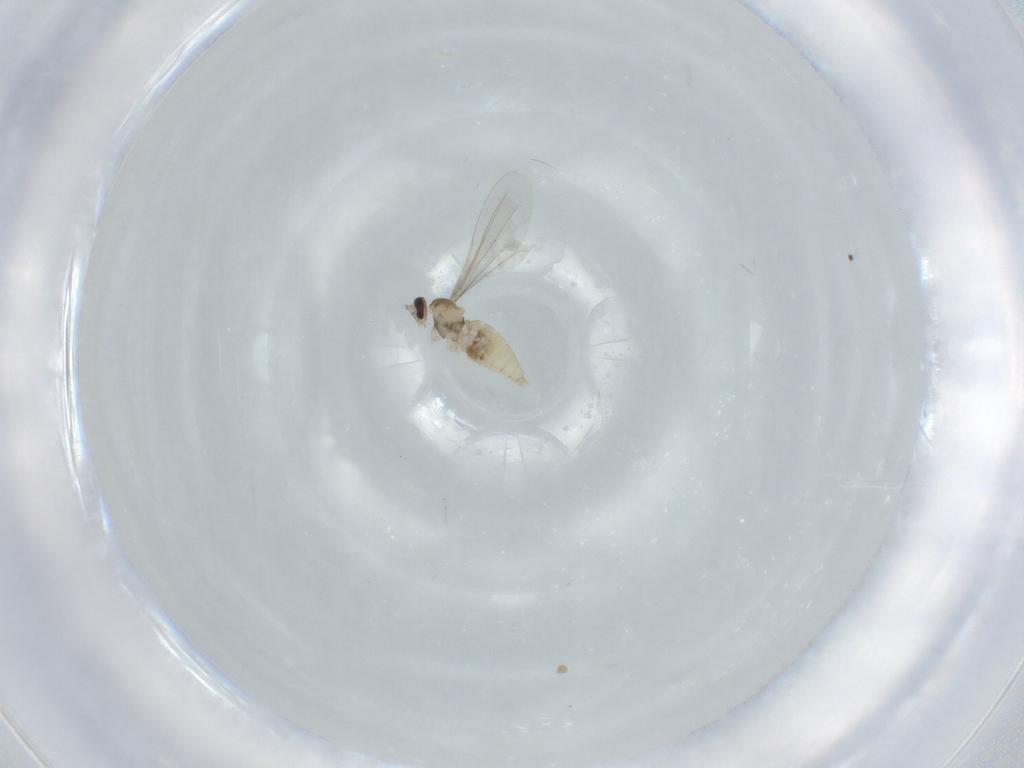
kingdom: Animalia
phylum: Arthropoda
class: Insecta
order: Diptera
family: Cecidomyiidae
